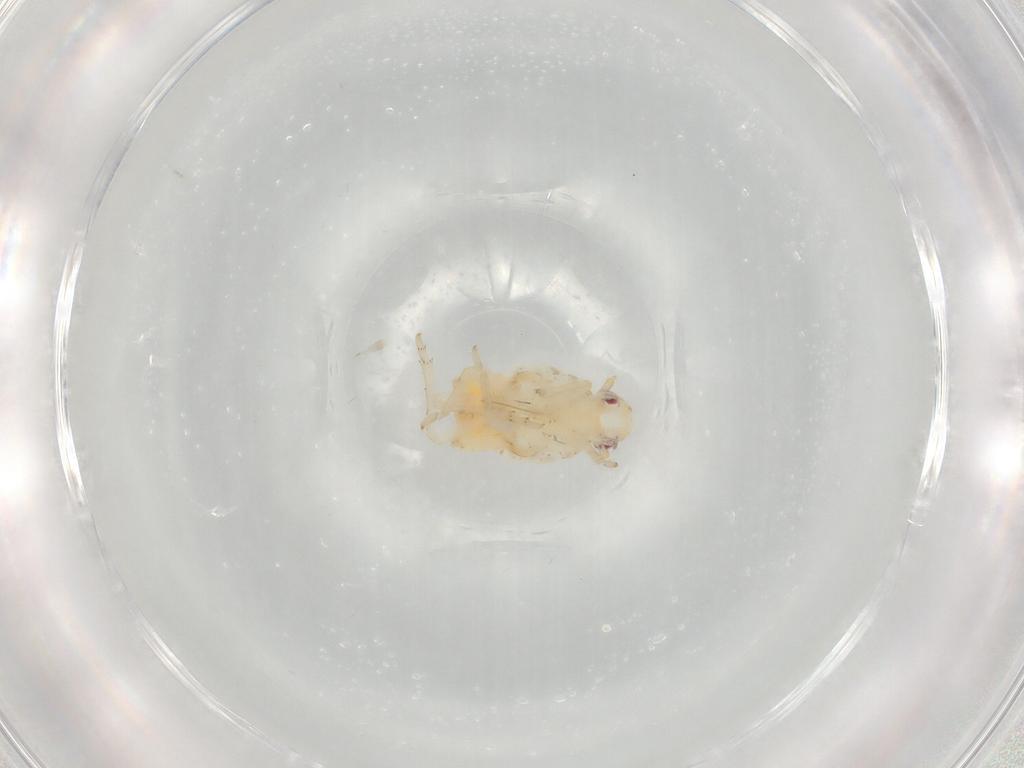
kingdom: Animalia
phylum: Arthropoda
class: Insecta
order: Hemiptera
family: Flatidae
